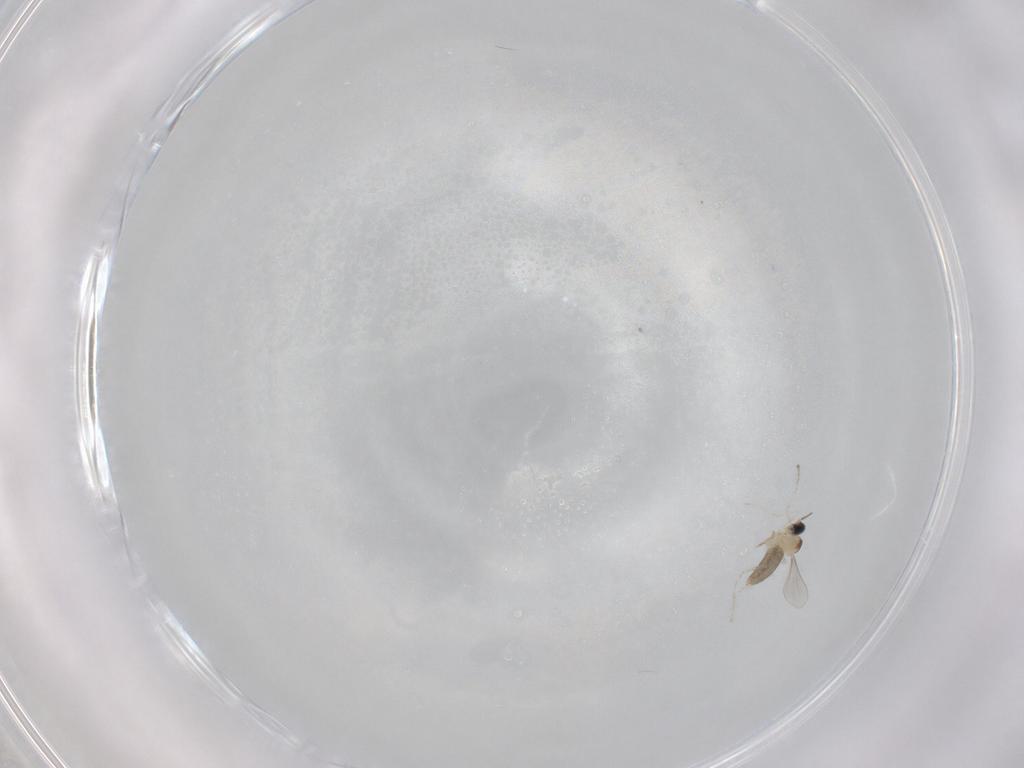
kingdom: Animalia
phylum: Arthropoda
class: Insecta
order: Diptera
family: Cecidomyiidae
